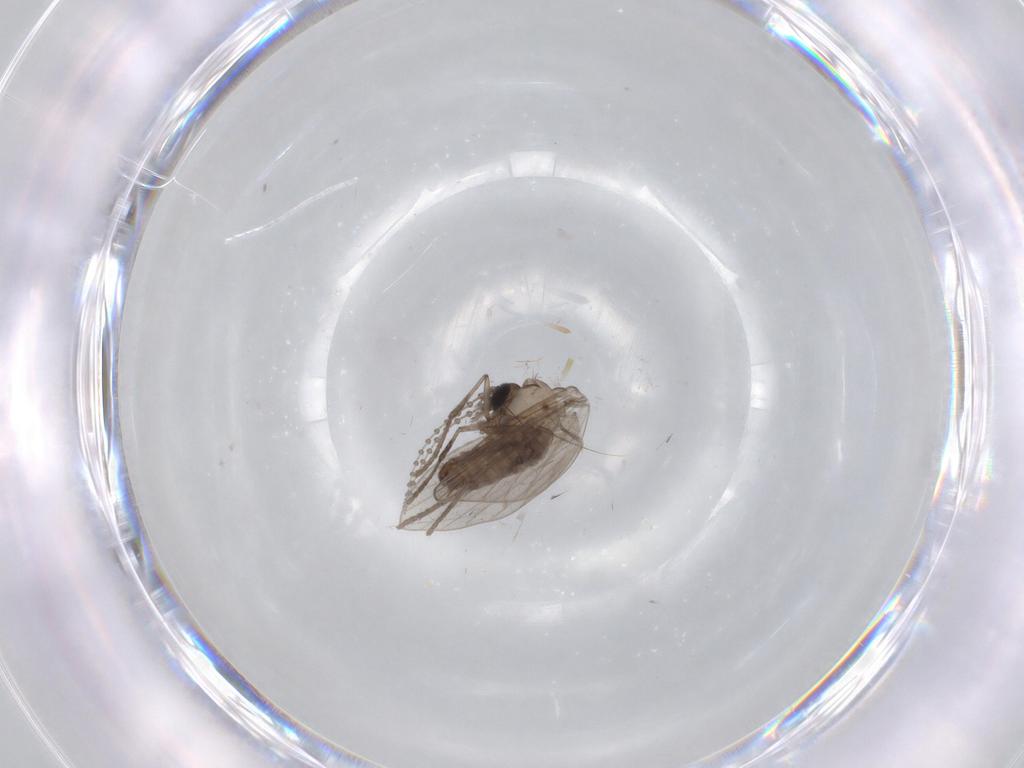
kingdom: Animalia
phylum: Arthropoda
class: Insecta
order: Diptera
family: Psychodidae
